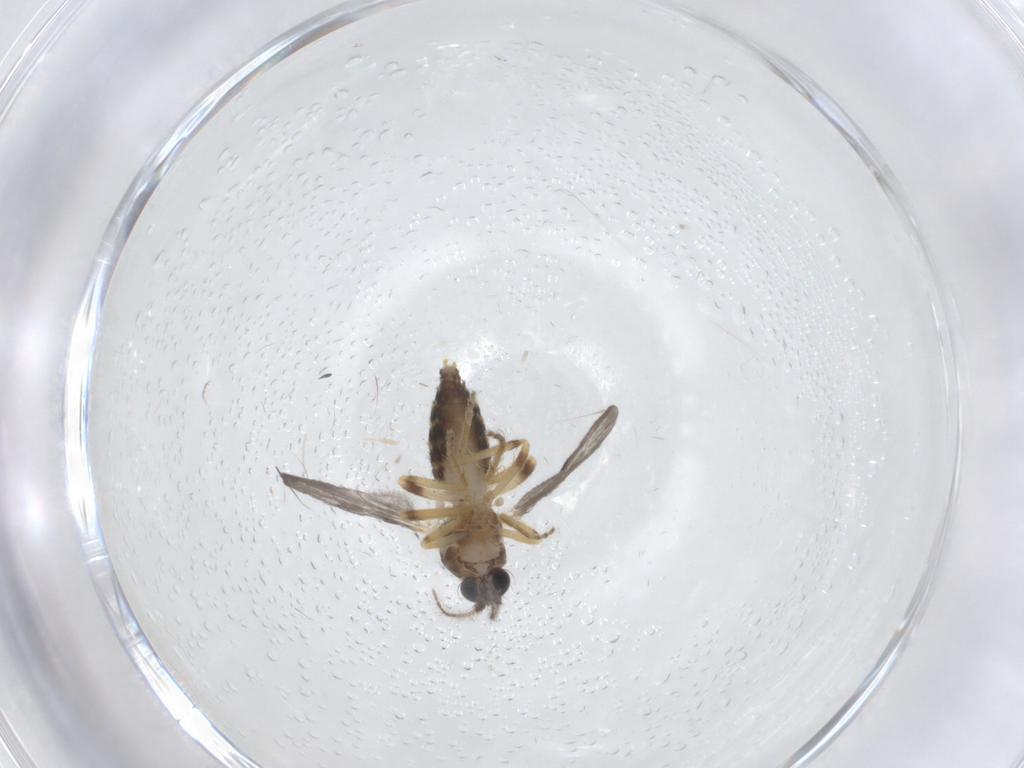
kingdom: Animalia
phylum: Arthropoda
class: Insecta
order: Diptera
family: Ceratopogonidae
